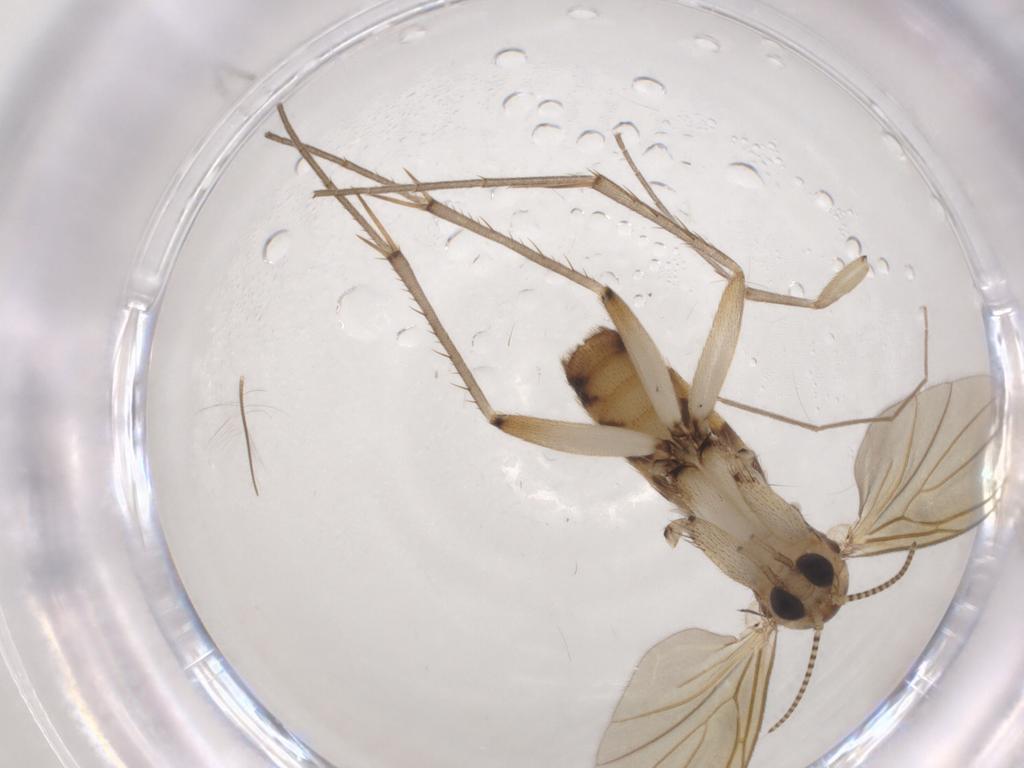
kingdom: Animalia
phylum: Arthropoda
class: Insecta
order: Diptera
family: Mycetophilidae
